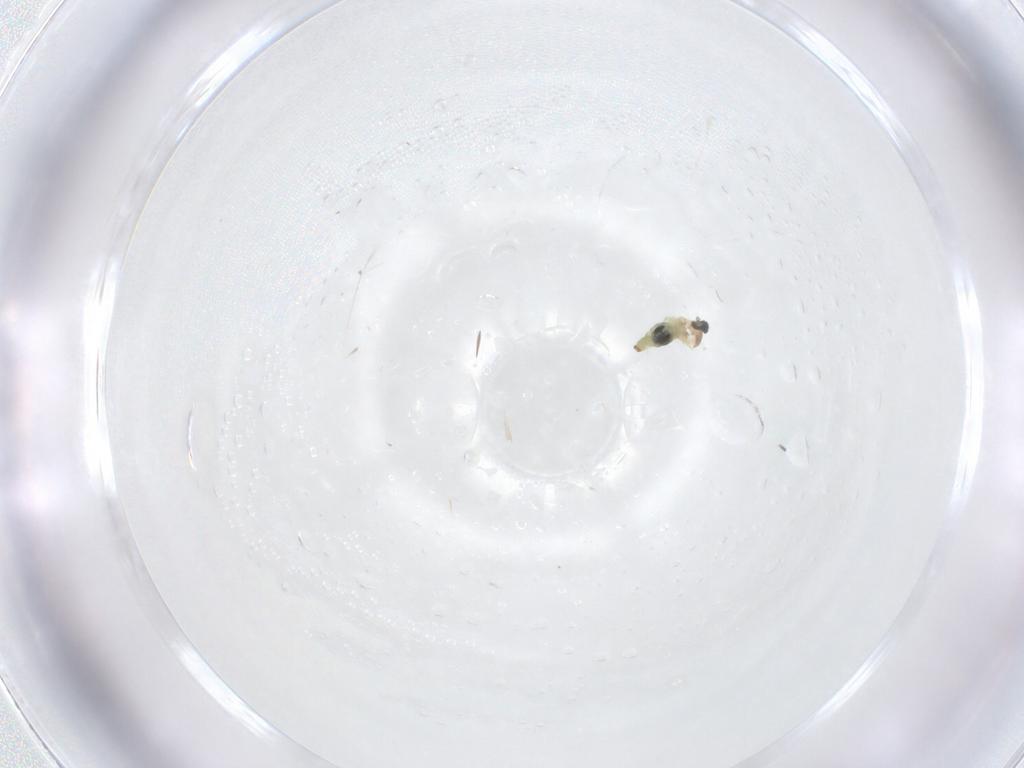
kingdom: Animalia
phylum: Arthropoda
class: Insecta
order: Diptera
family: Cecidomyiidae
